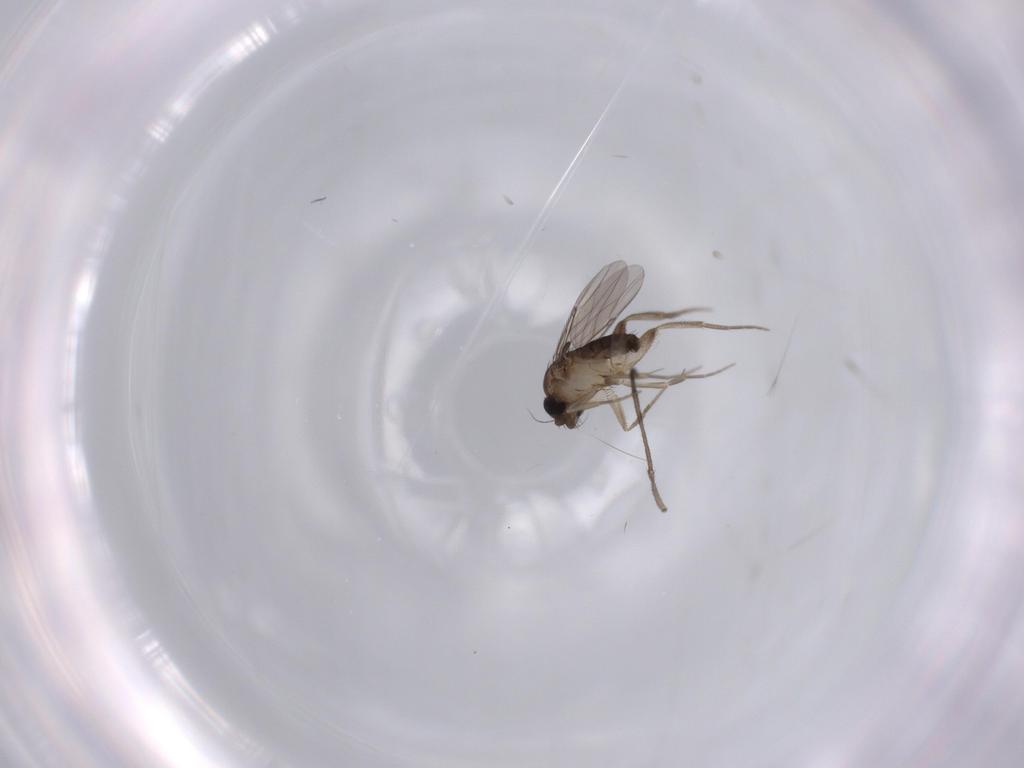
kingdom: Animalia
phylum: Arthropoda
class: Insecta
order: Diptera
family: Phoridae
